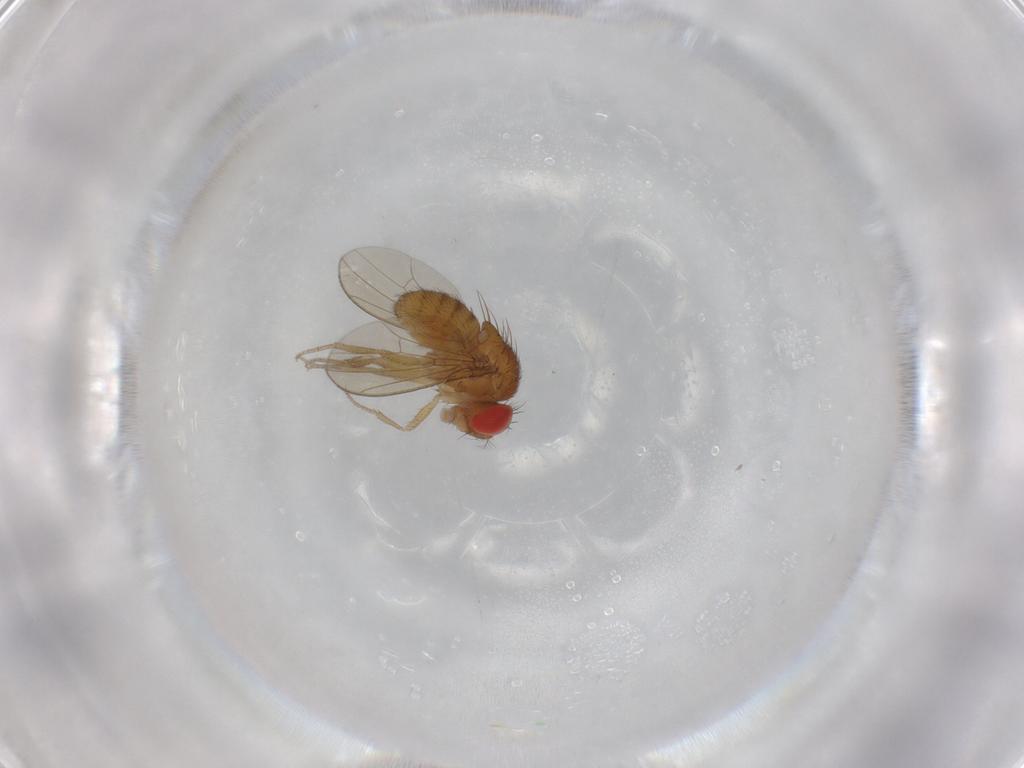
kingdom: Animalia
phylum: Arthropoda
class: Insecta
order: Diptera
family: Drosophilidae
